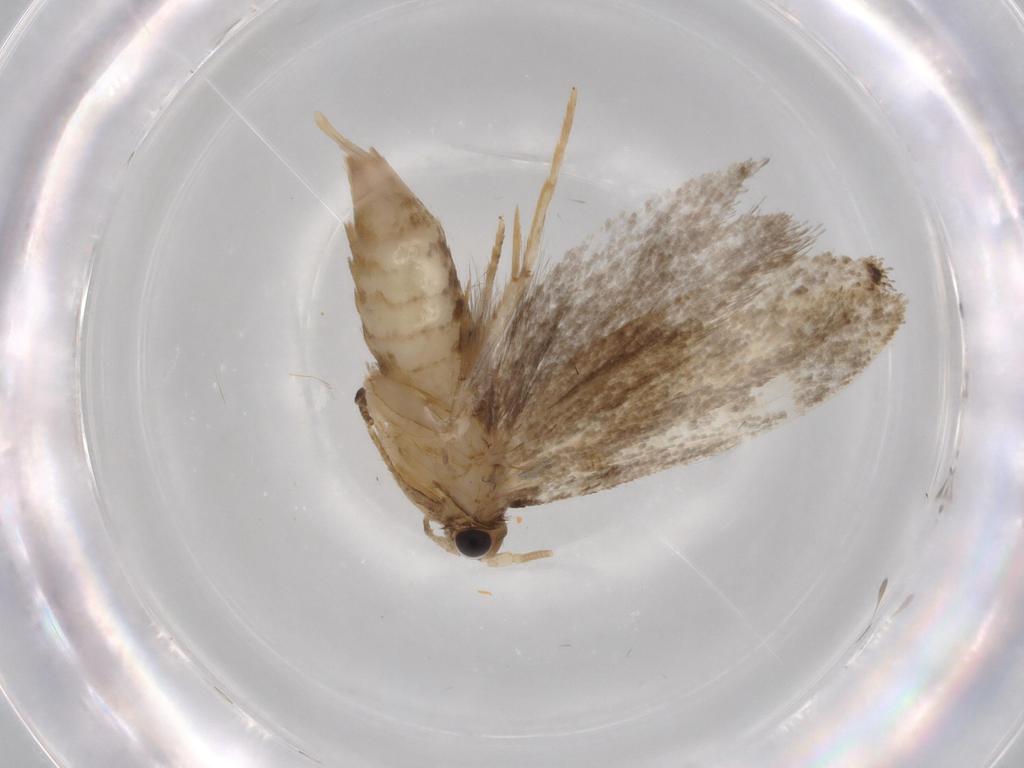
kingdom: Animalia
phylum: Arthropoda
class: Insecta
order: Lepidoptera
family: Tineidae
